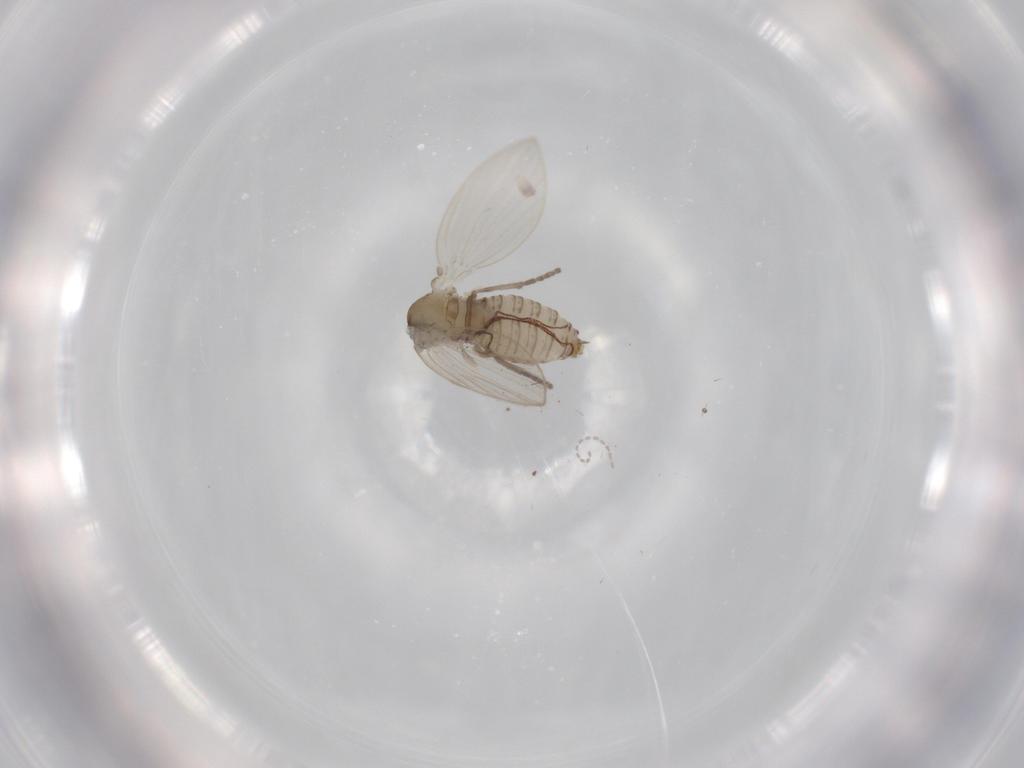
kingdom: Animalia
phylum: Arthropoda
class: Insecta
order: Diptera
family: Psychodidae
